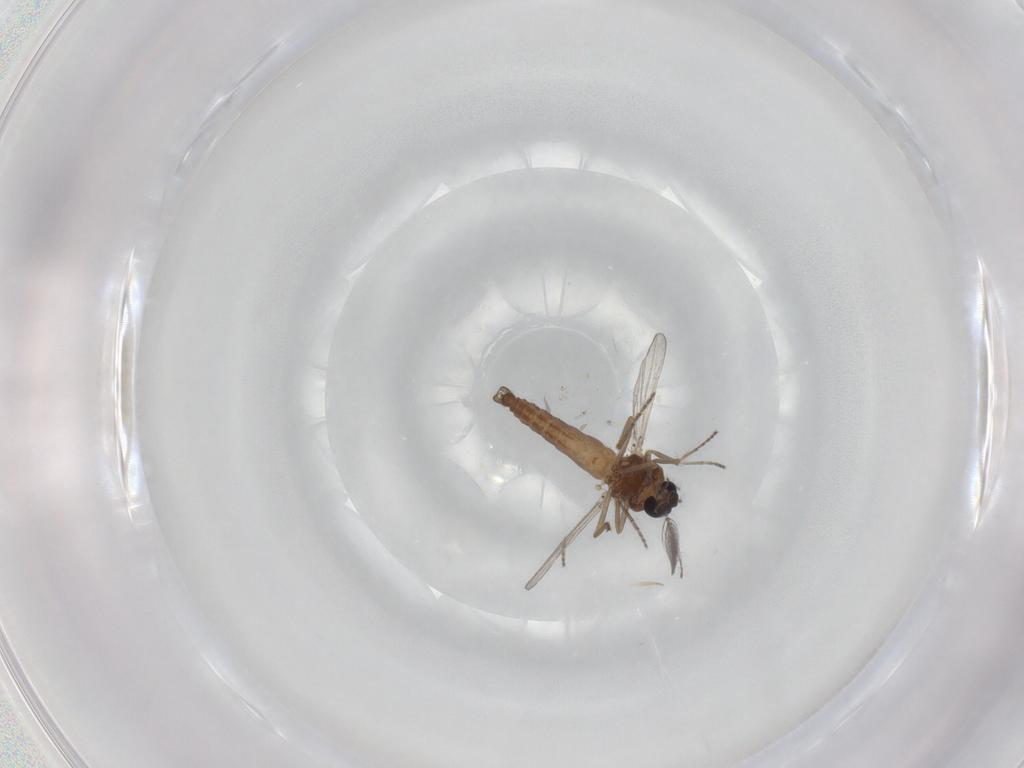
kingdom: Animalia
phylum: Arthropoda
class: Insecta
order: Diptera
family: Ceratopogonidae
